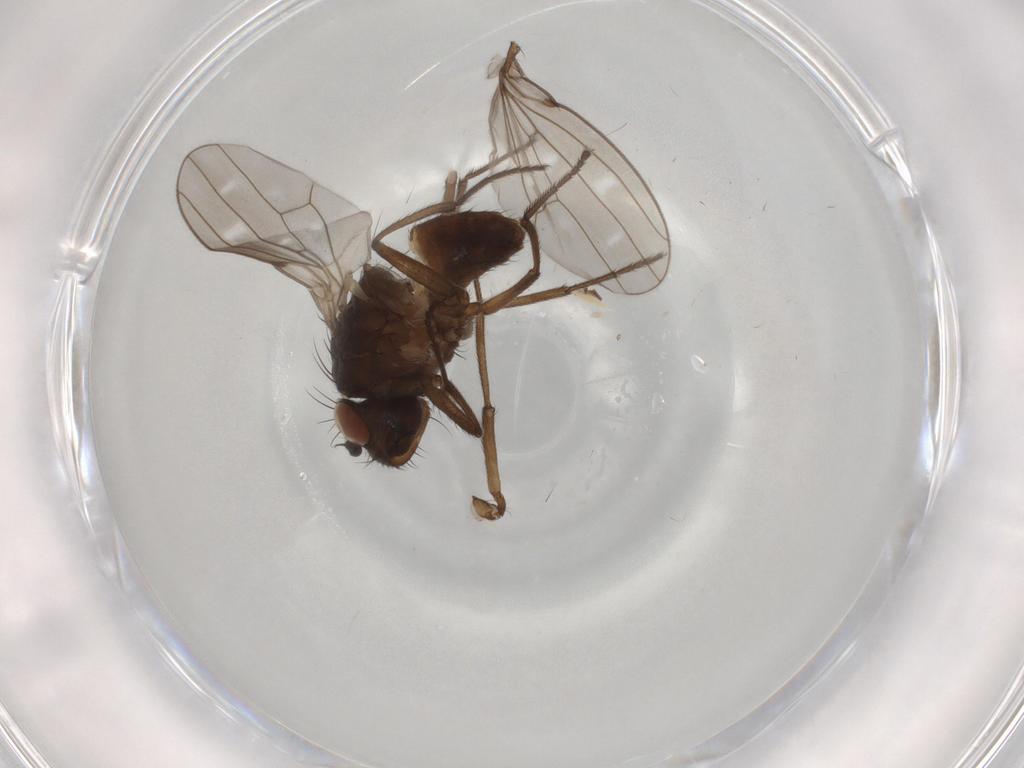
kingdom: Animalia
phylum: Arthropoda
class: Insecta
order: Diptera
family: Ephydridae
